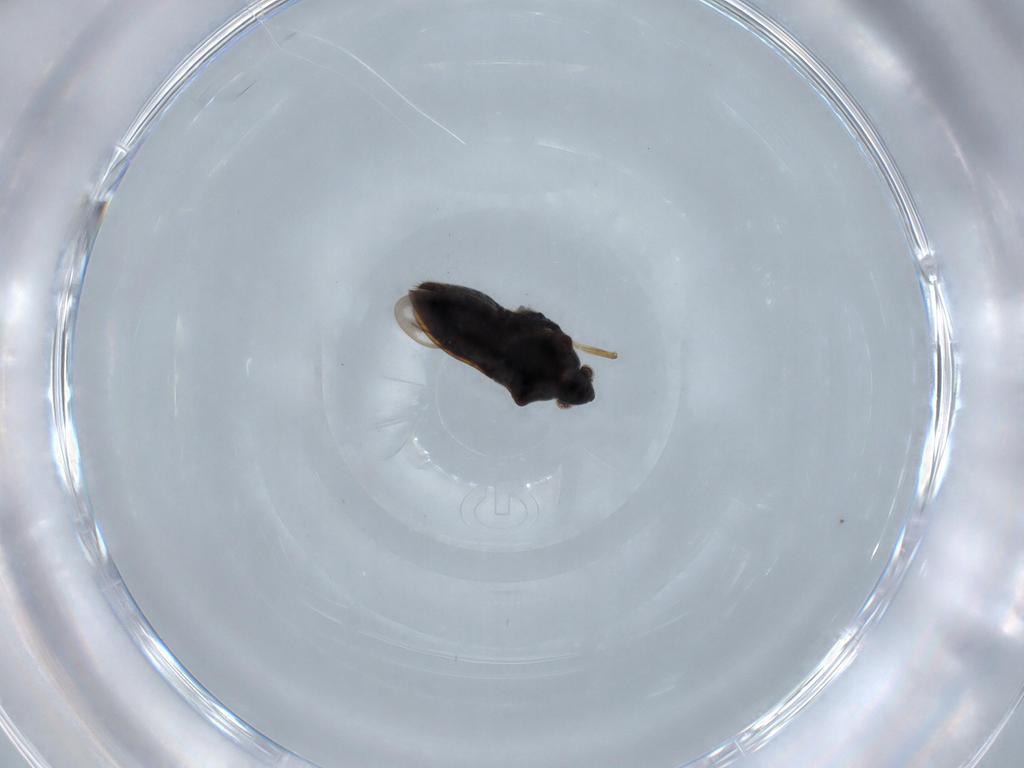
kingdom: Animalia
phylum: Arthropoda
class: Insecta
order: Hemiptera
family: Veliidae
